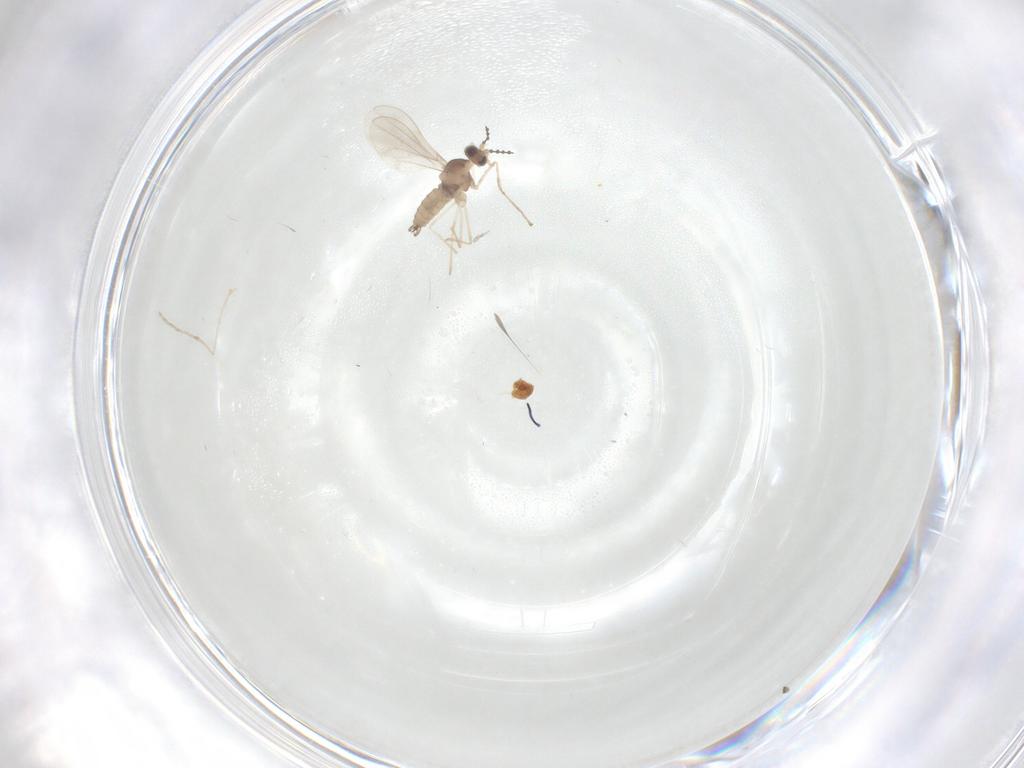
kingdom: Animalia
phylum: Arthropoda
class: Insecta
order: Diptera
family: Cecidomyiidae
